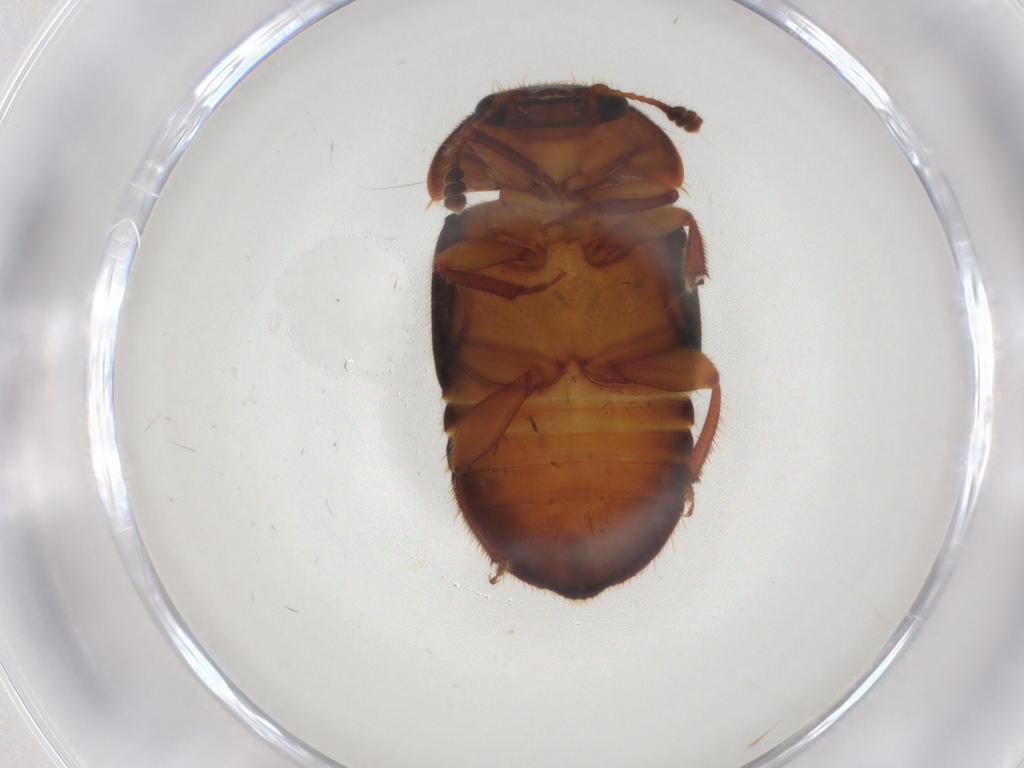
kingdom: Animalia
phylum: Arthropoda
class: Insecta
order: Coleoptera
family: Nitidulidae
